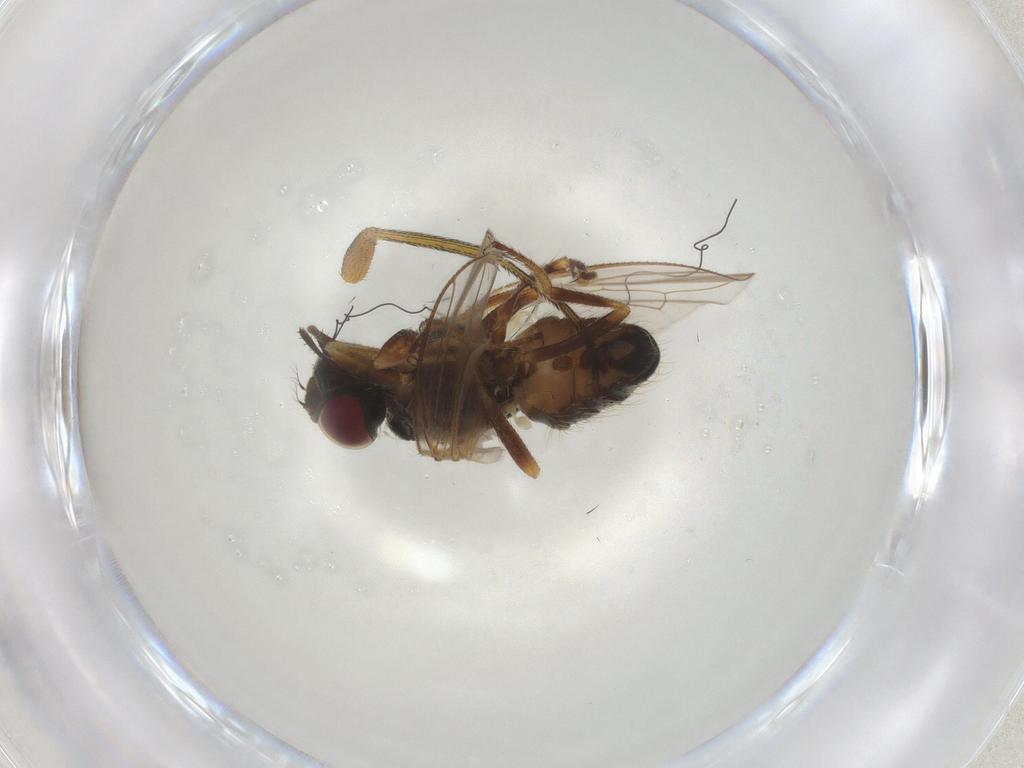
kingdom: Animalia
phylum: Arthropoda
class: Insecta
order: Diptera
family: Muscidae
